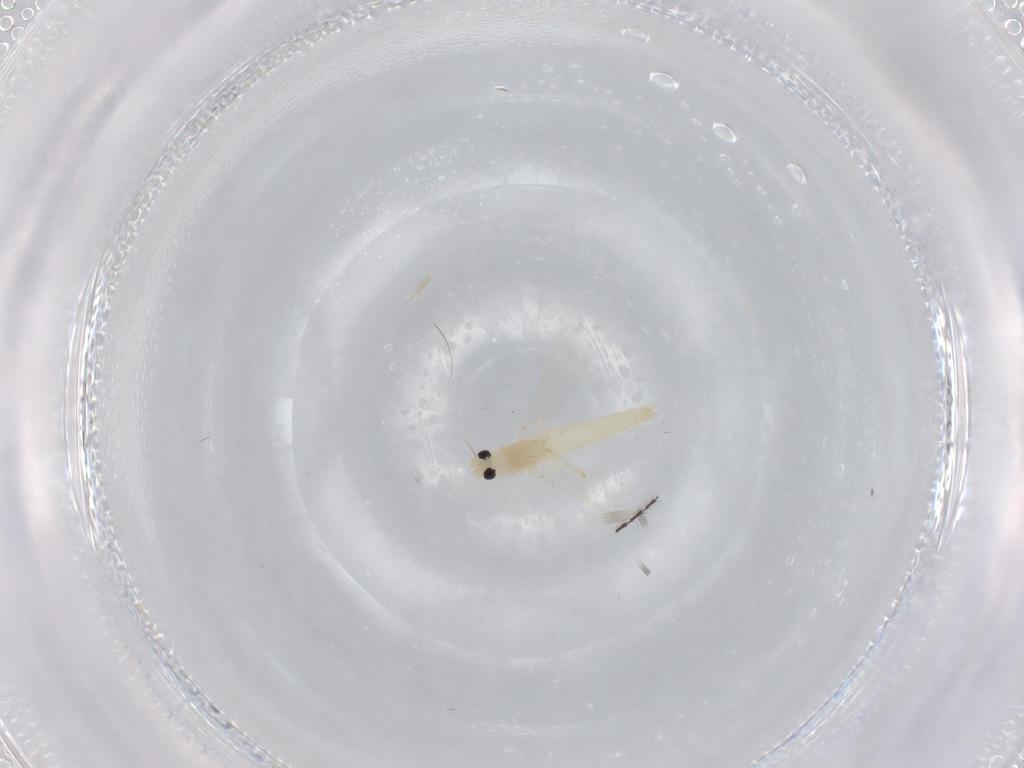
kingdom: Animalia
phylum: Arthropoda
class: Insecta
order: Diptera
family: Chironomidae
